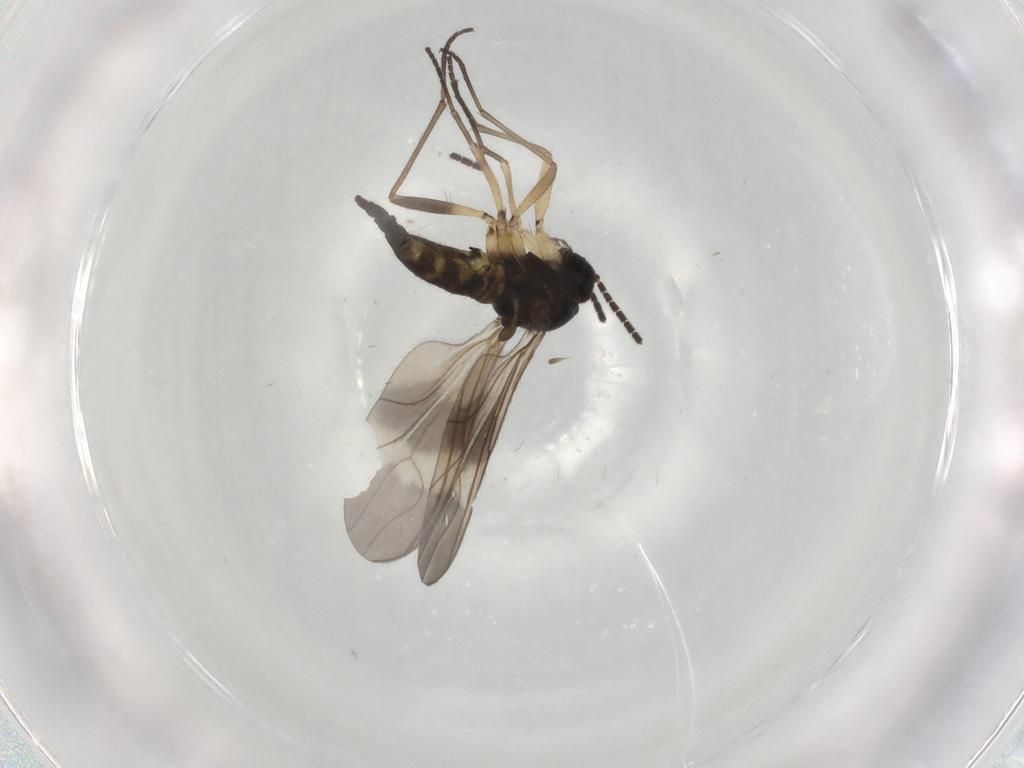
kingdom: Animalia
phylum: Arthropoda
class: Insecta
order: Diptera
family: Sciaridae
